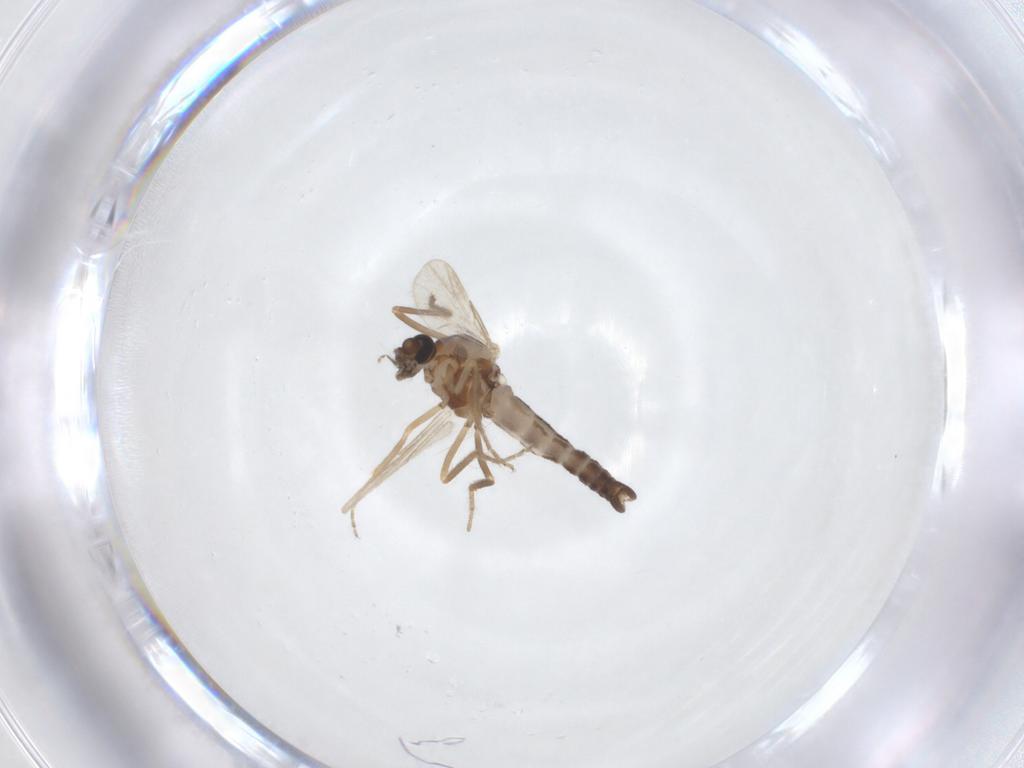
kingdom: Animalia
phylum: Arthropoda
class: Insecta
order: Diptera
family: Ceratopogonidae
